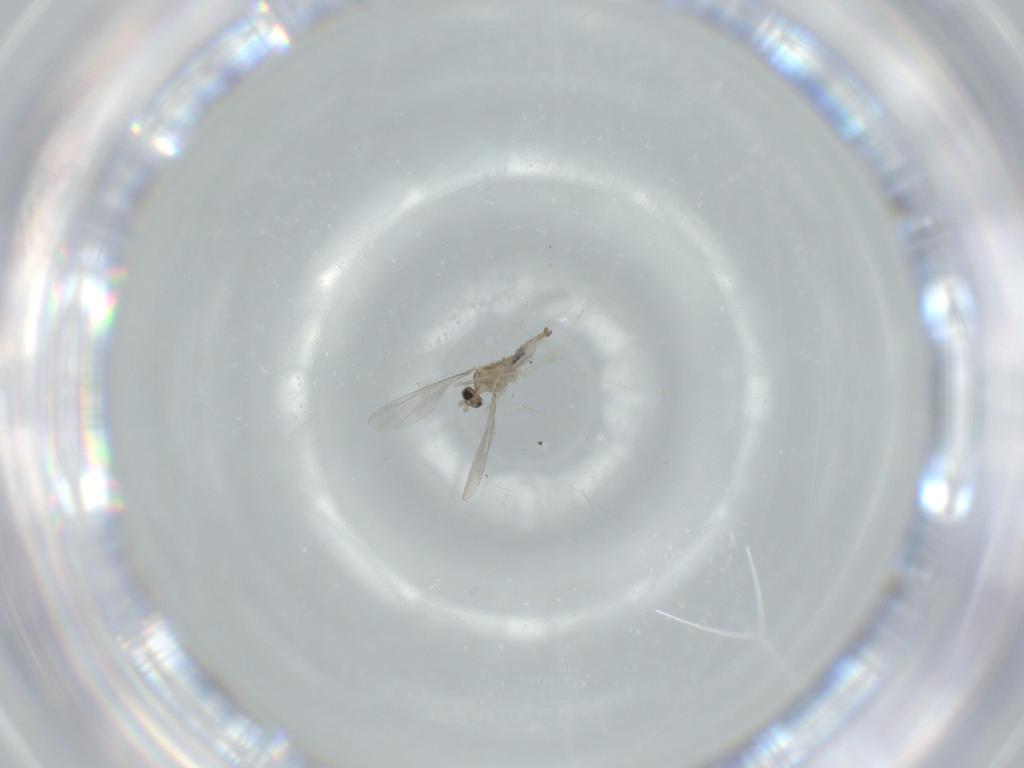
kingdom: Animalia
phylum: Arthropoda
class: Insecta
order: Diptera
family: Cecidomyiidae
